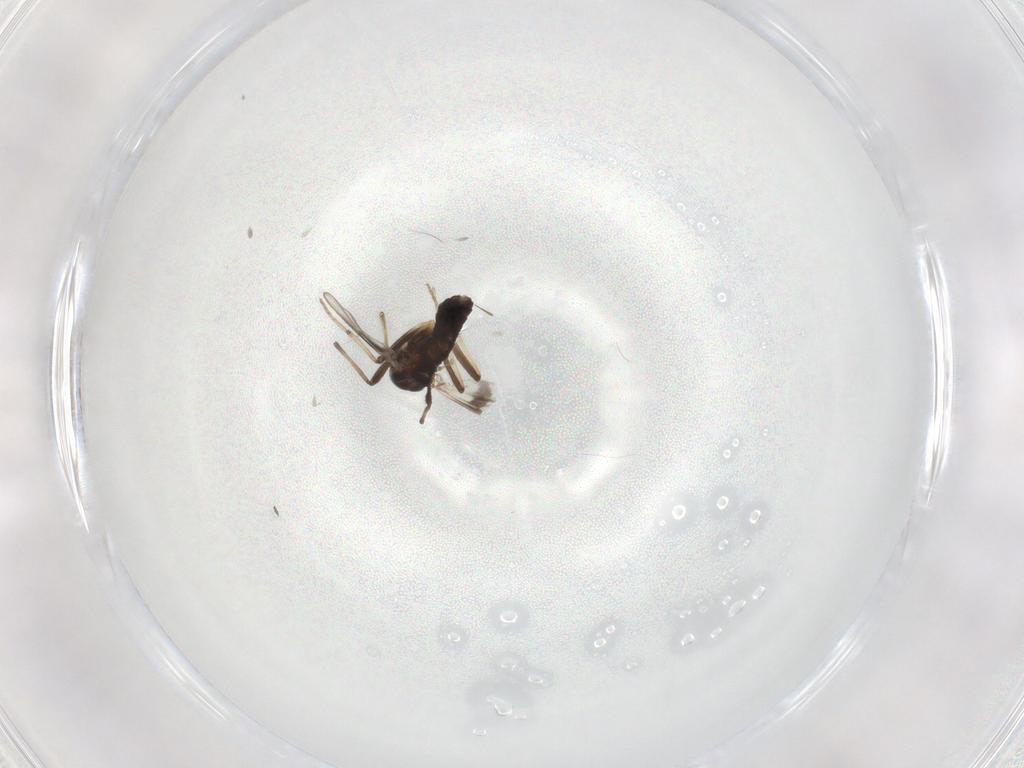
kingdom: Animalia
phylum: Arthropoda
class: Insecta
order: Diptera
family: Chironomidae
